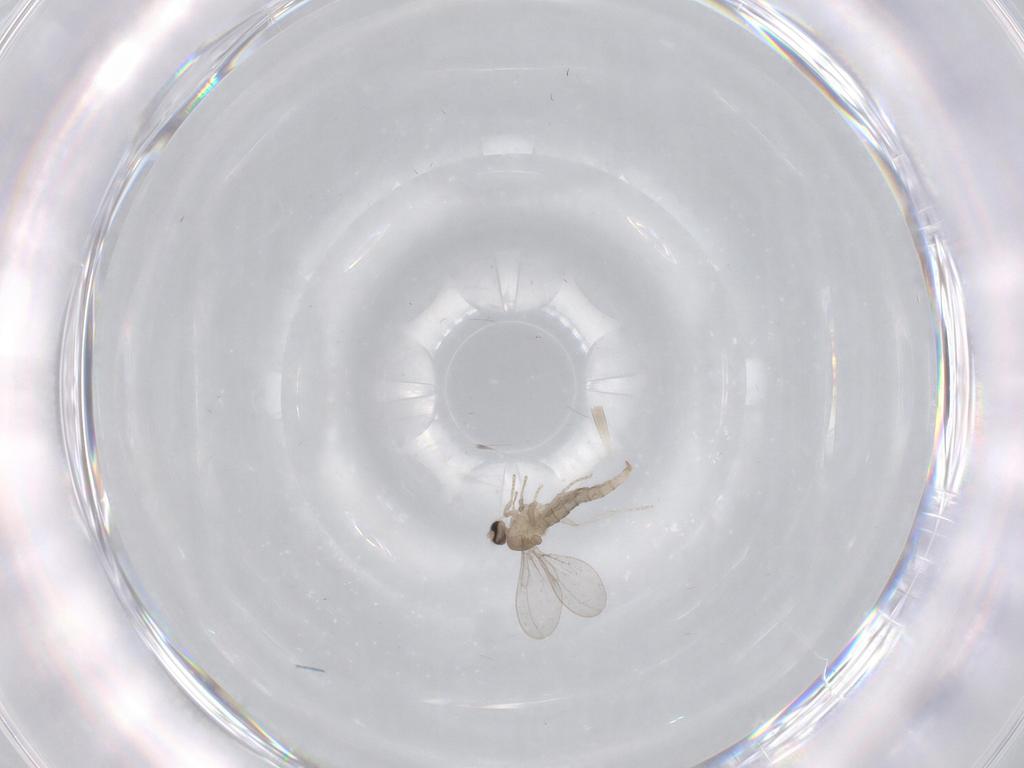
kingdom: Animalia
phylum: Arthropoda
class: Insecta
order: Diptera
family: Cecidomyiidae
